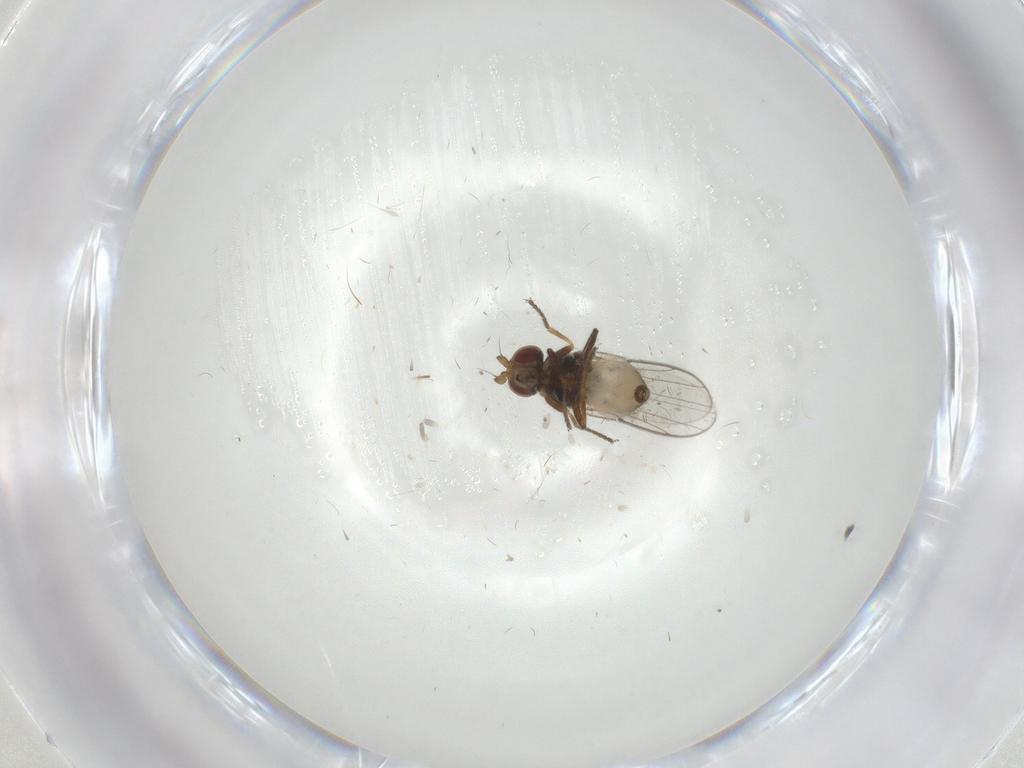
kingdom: Animalia
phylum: Arthropoda
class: Insecta
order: Diptera
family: Chloropidae
